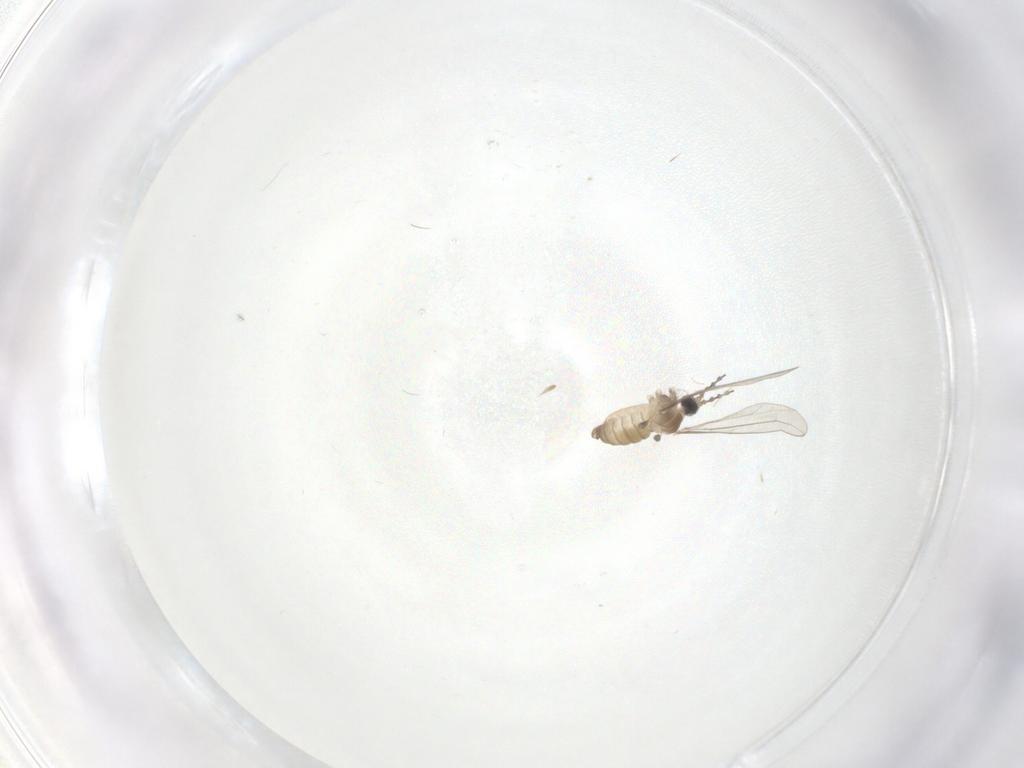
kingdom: Animalia
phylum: Arthropoda
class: Insecta
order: Diptera
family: Cecidomyiidae
